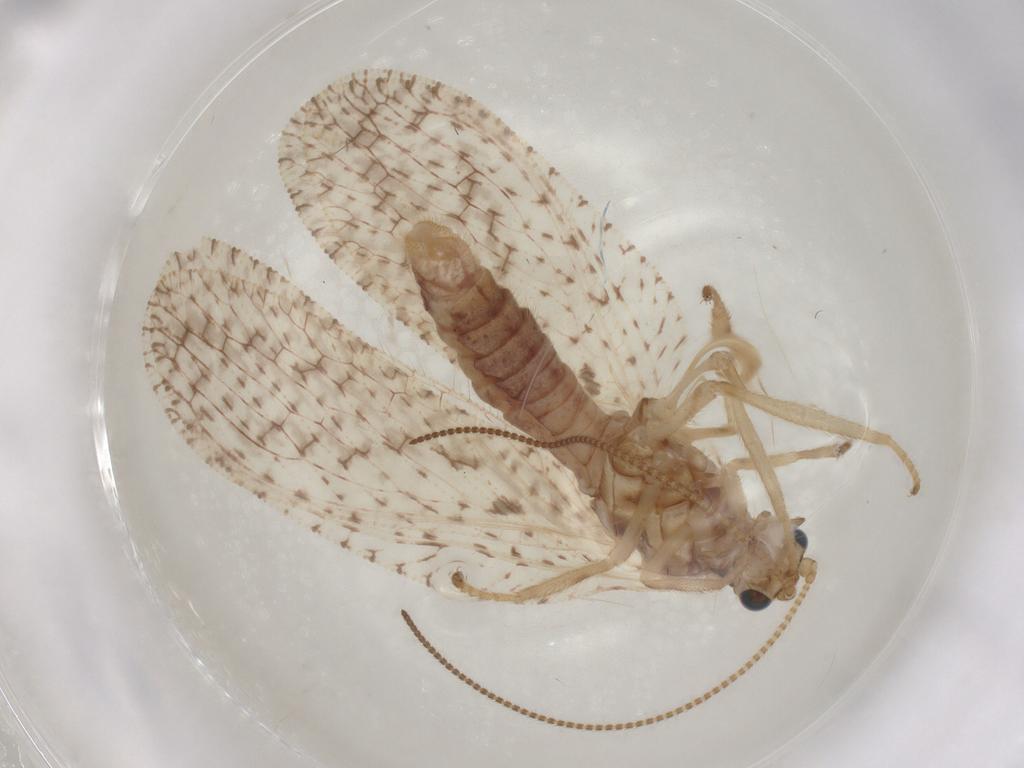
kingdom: Animalia
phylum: Arthropoda
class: Insecta
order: Neuroptera
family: Hemerobiidae
